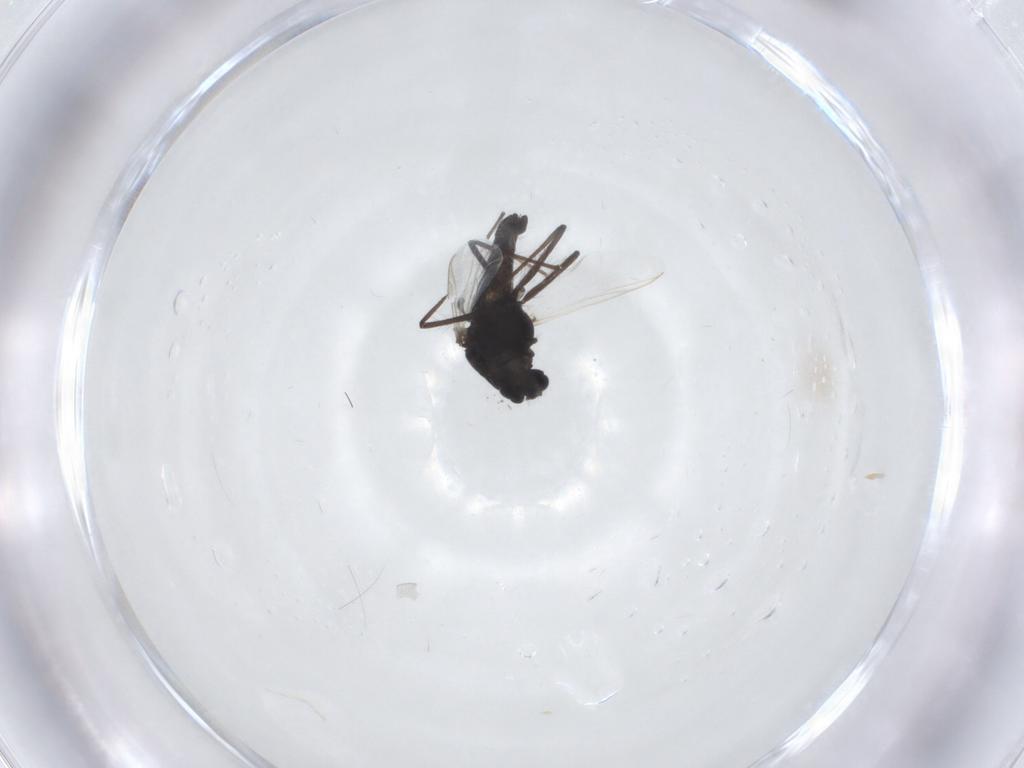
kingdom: Animalia
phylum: Arthropoda
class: Insecta
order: Diptera
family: Chironomidae
